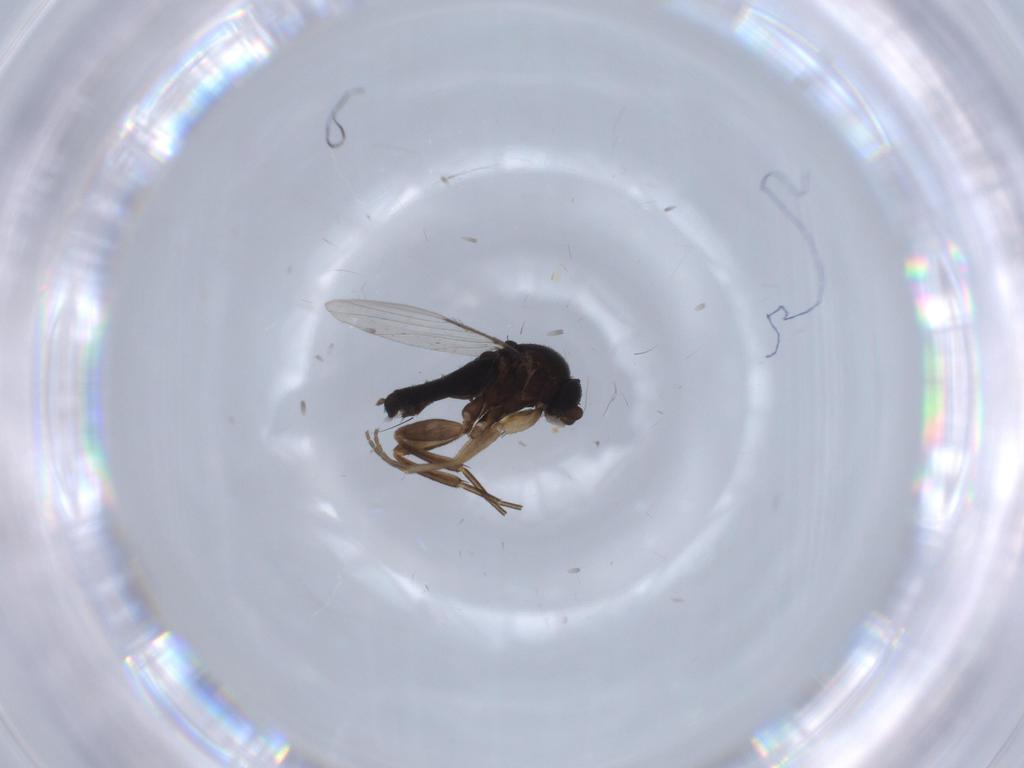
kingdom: Animalia
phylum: Arthropoda
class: Insecta
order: Diptera
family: Phoridae
